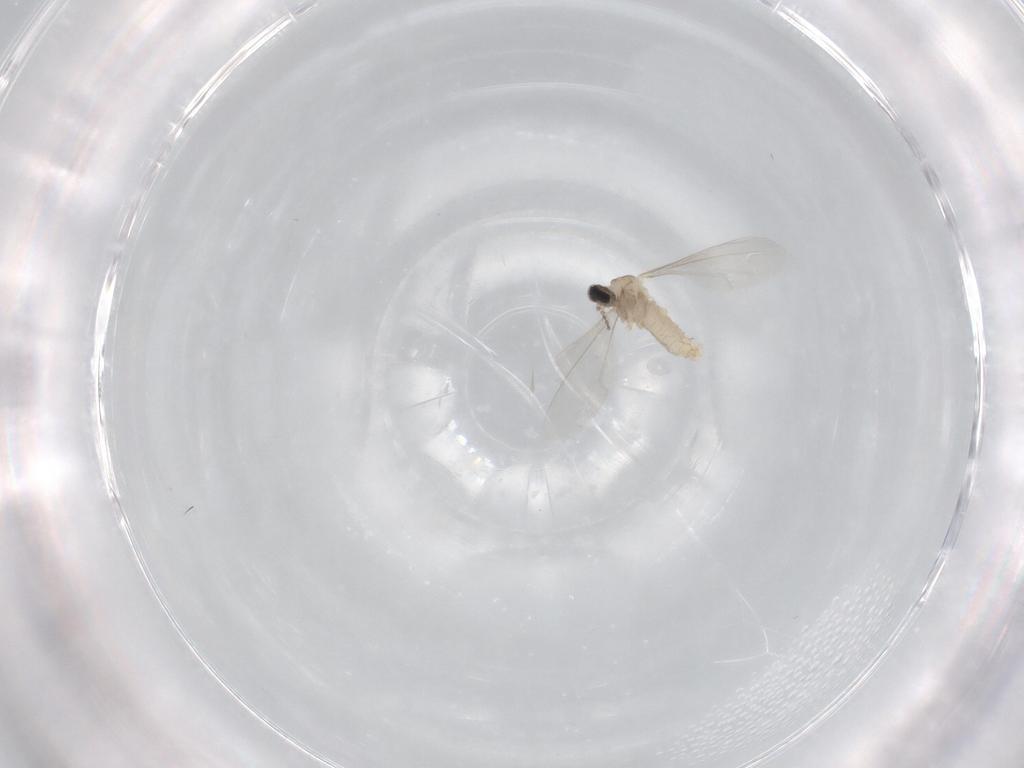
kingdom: Animalia
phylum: Arthropoda
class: Insecta
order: Diptera
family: Cecidomyiidae
